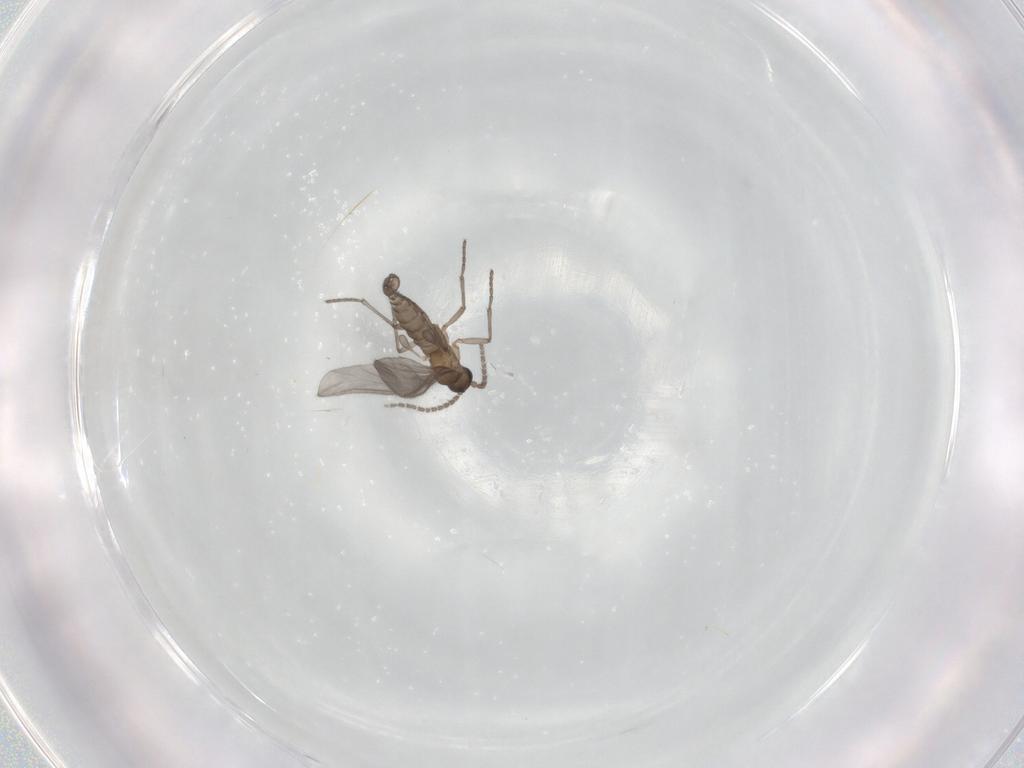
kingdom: Animalia
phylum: Arthropoda
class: Insecta
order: Diptera
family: Sciaridae
